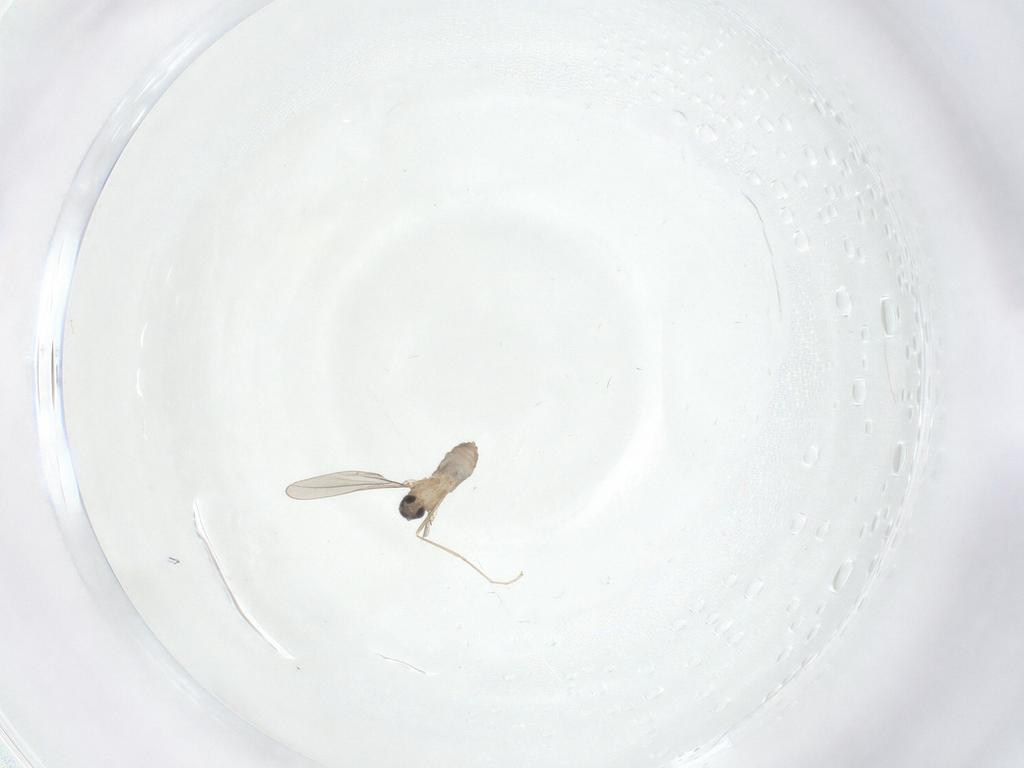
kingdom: Animalia
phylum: Arthropoda
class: Insecta
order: Diptera
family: Cecidomyiidae
